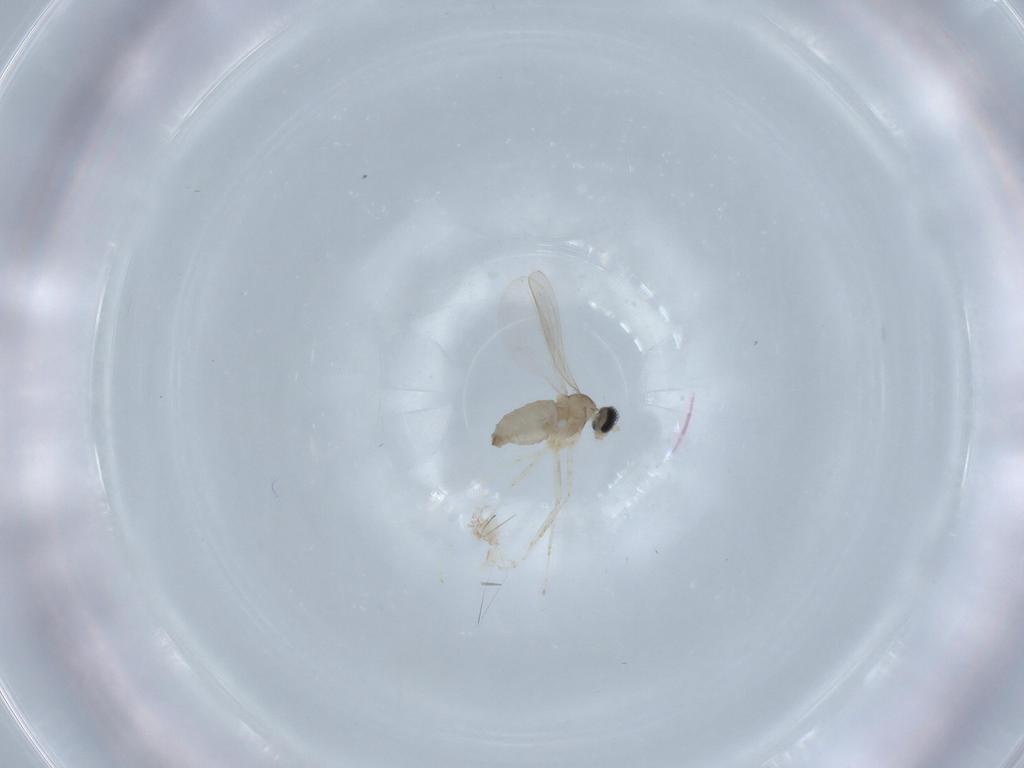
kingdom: Animalia
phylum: Arthropoda
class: Insecta
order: Diptera
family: Cecidomyiidae
